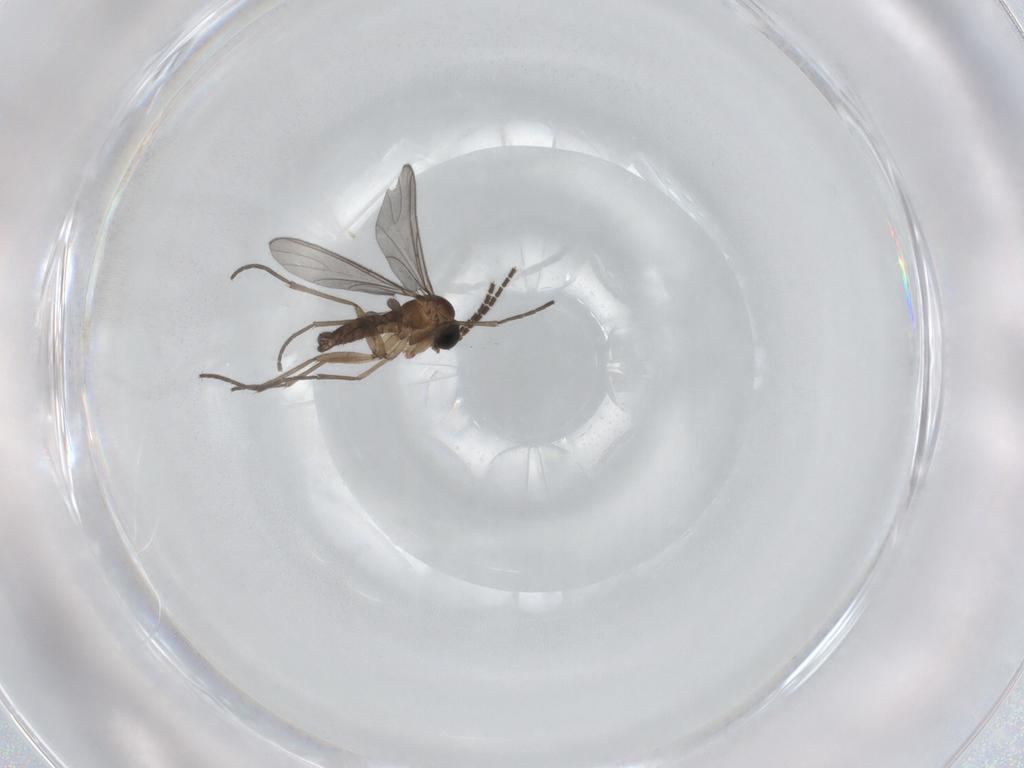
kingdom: Animalia
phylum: Arthropoda
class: Insecta
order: Diptera
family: Sciaridae
